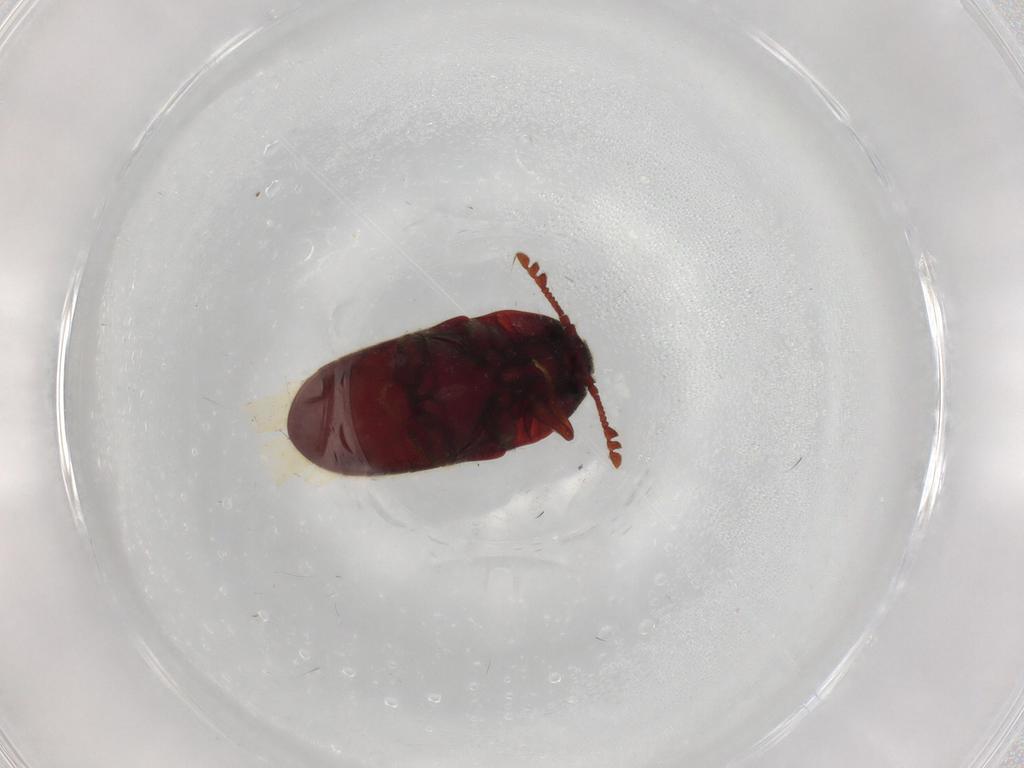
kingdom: Animalia
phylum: Arthropoda
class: Insecta
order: Coleoptera
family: Throscidae
